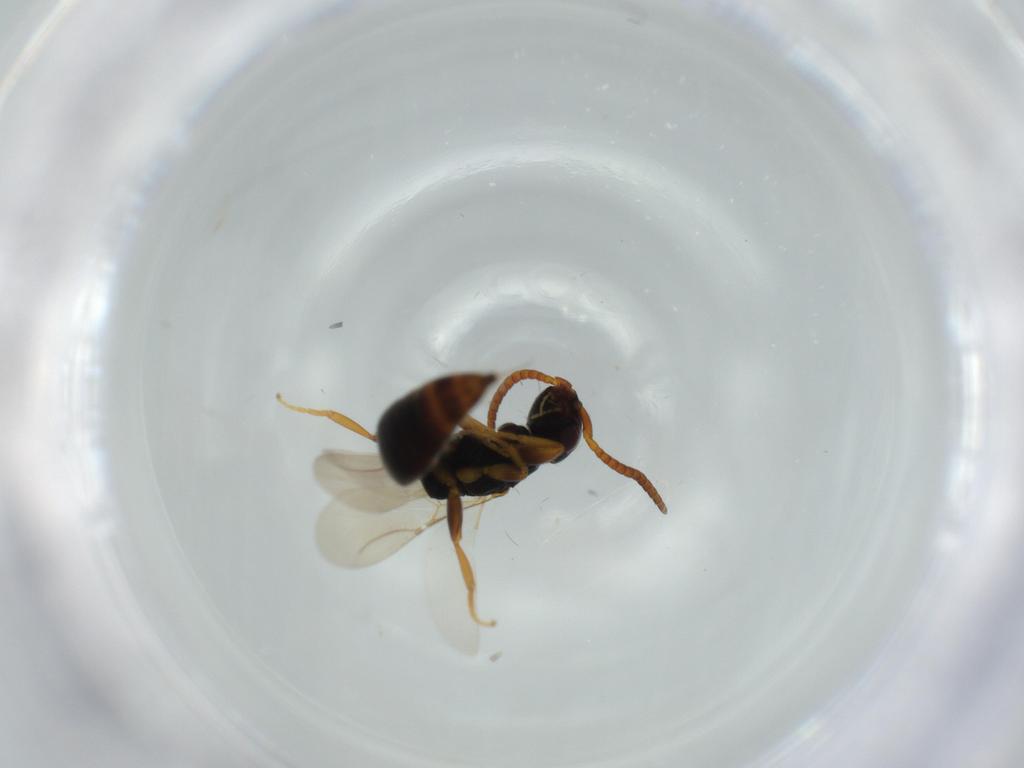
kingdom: Animalia
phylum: Arthropoda
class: Insecta
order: Hymenoptera
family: Bethylidae
